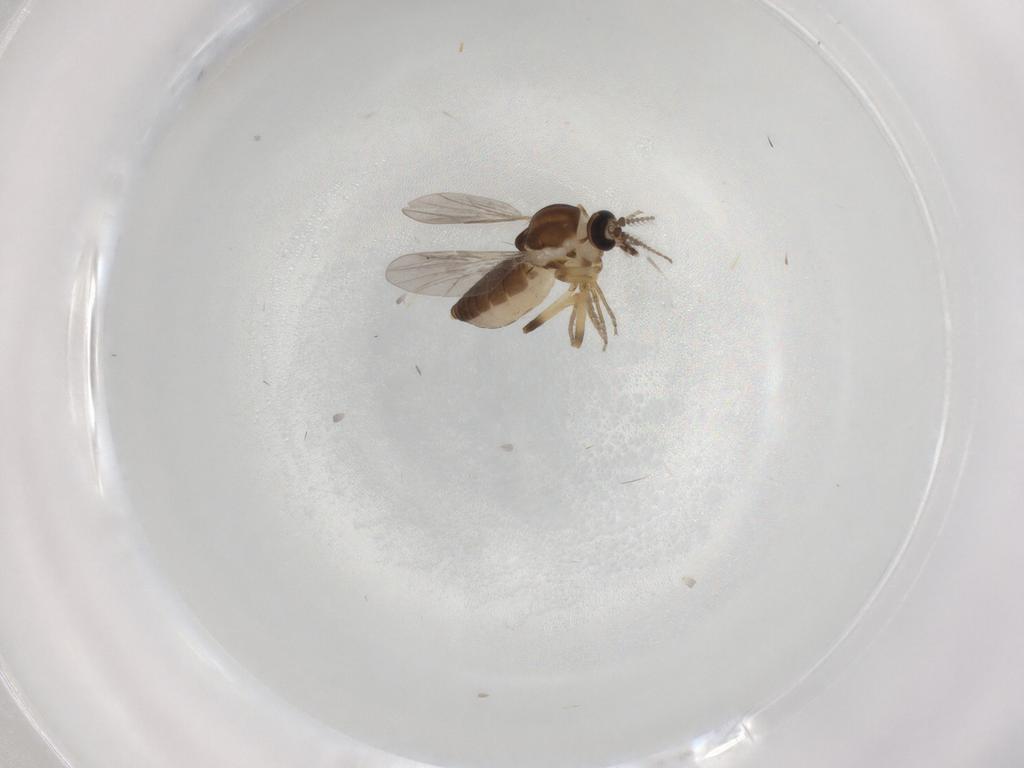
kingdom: Animalia
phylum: Arthropoda
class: Insecta
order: Diptera
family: Ceratopogonidae
